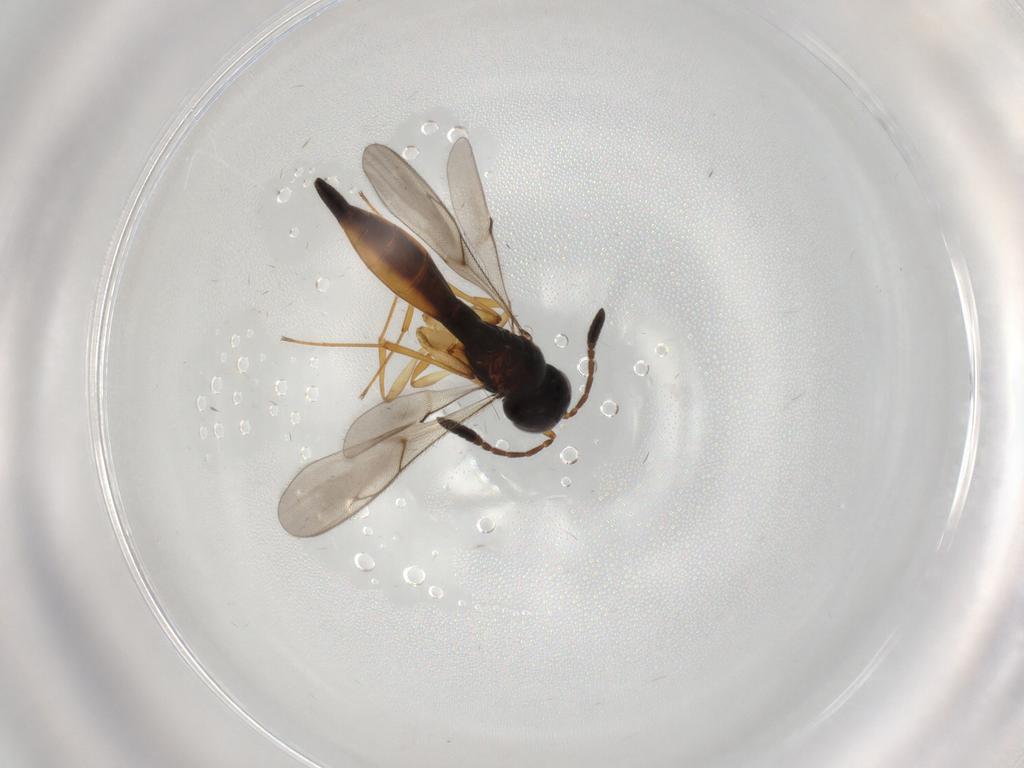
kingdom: Animalia
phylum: Arthropoda
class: Insecta
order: Hymenoptera
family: Scelionidae
